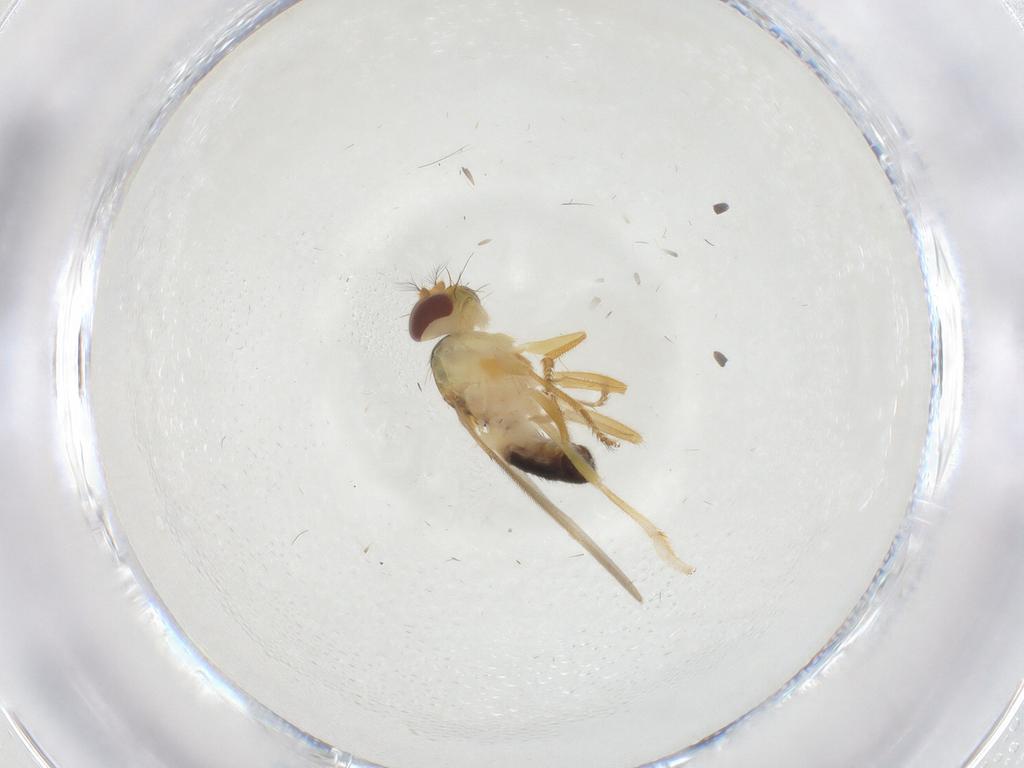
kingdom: Animalia
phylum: Arthropoda
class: Insecta
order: Diptera
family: Periscelididae
